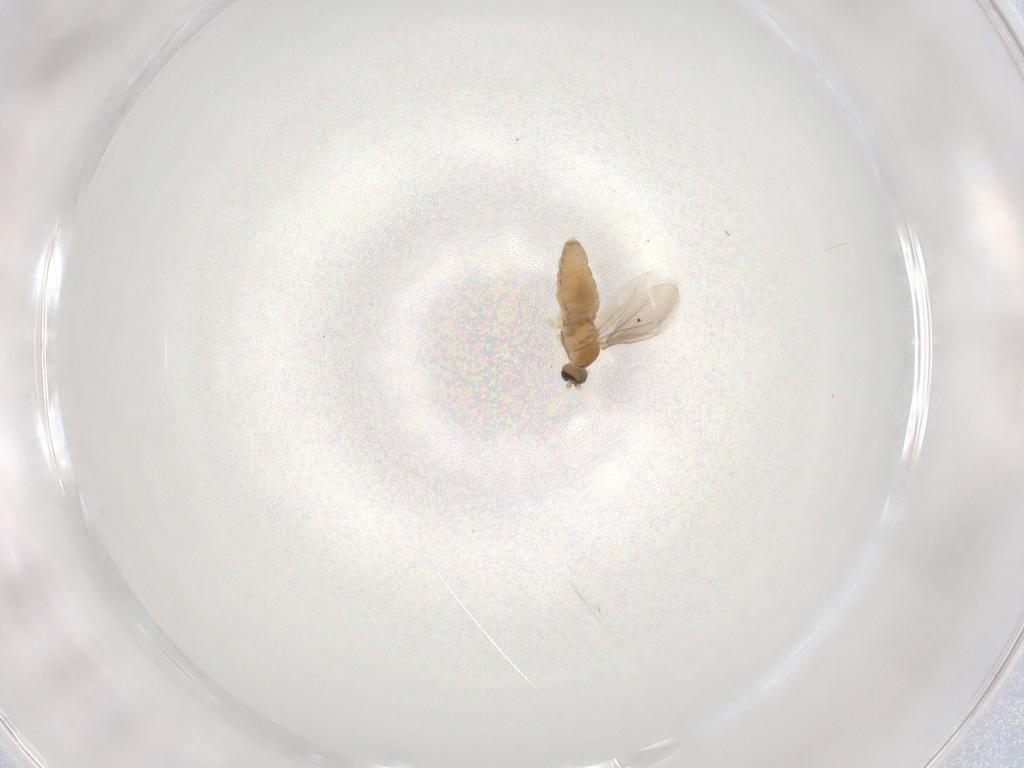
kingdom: Animalia
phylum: Arthropoda
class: Insecta
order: Diptera
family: Cecidomyiidae
